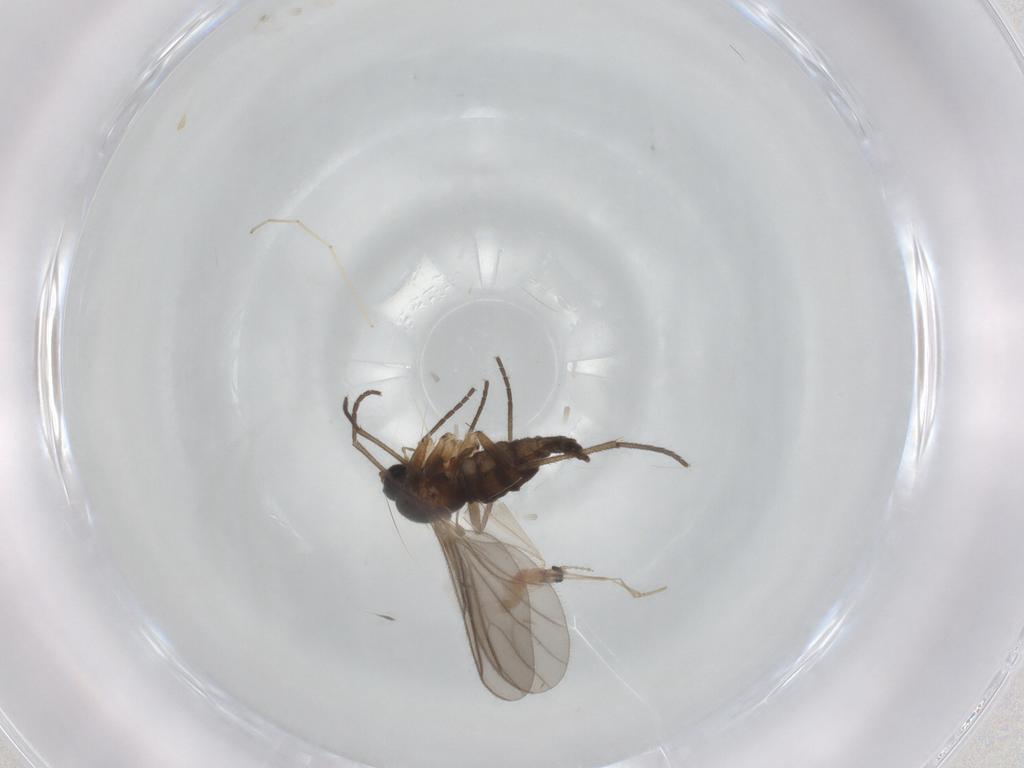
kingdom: Animalia
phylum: Arthropoda
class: Insecta
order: Diptera
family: Cecidomyiidae
